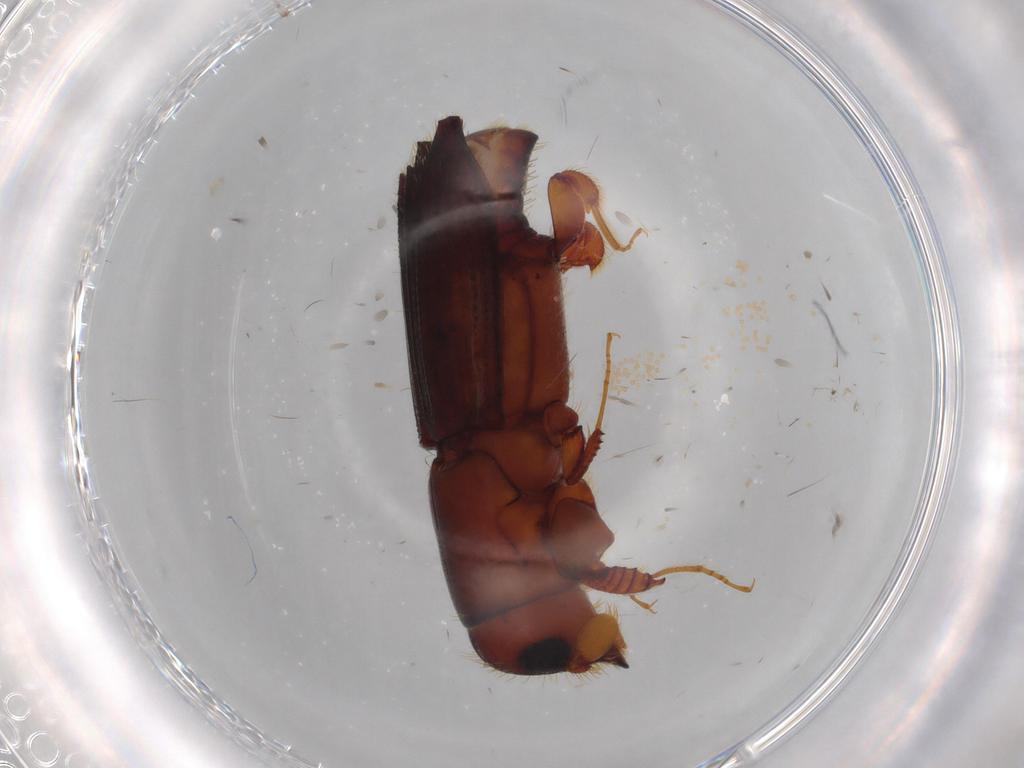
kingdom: Animalia
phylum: Arthropoda
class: Insecta
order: Coleoptera
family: Curculionidae
